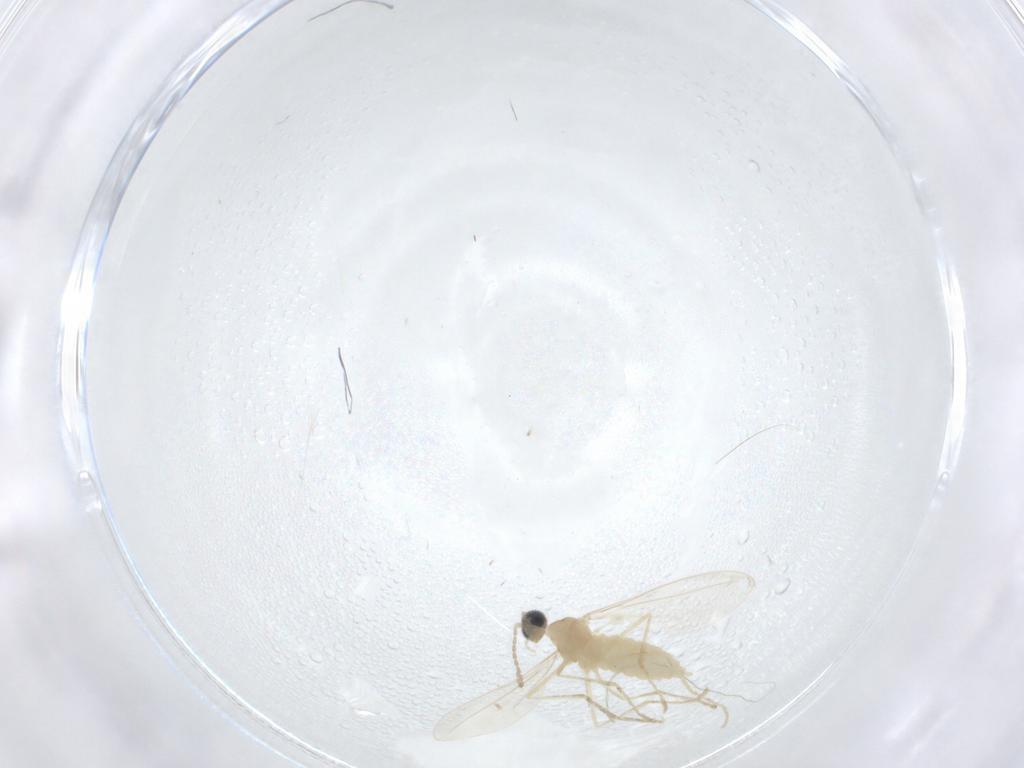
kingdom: Animalia
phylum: Arthropoda
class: Insecta
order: Diptera
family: Cecidomyiidae
